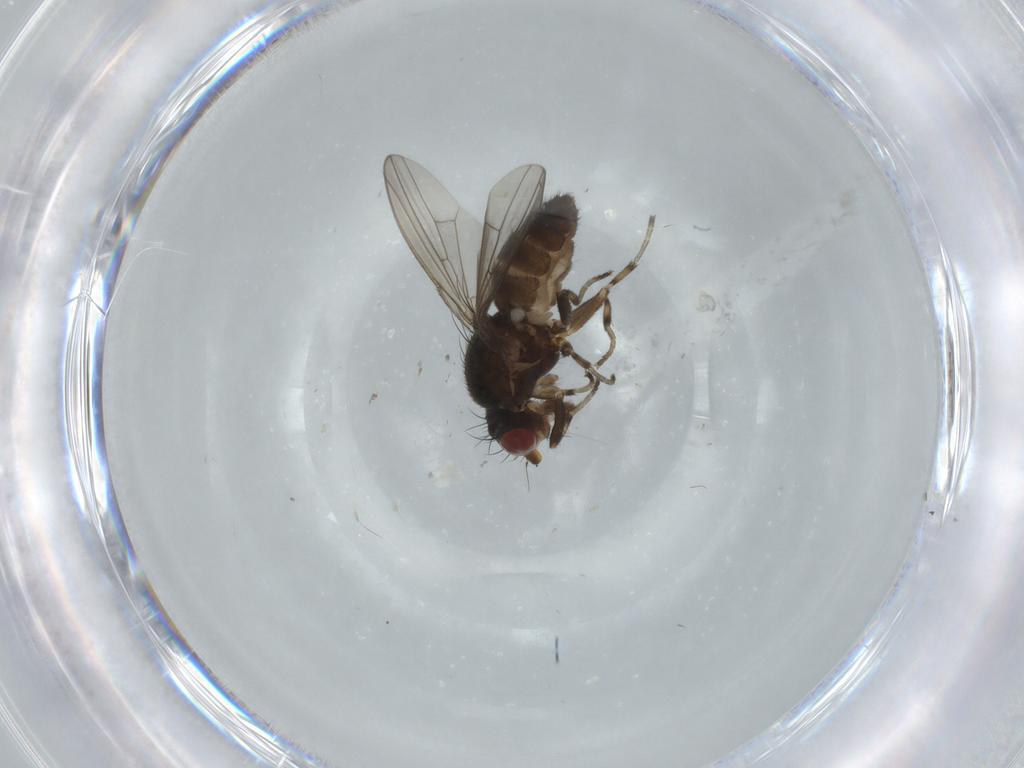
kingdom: Animalia
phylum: Arthropoda
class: Insecta
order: Diptera
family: Heleomyzidae
